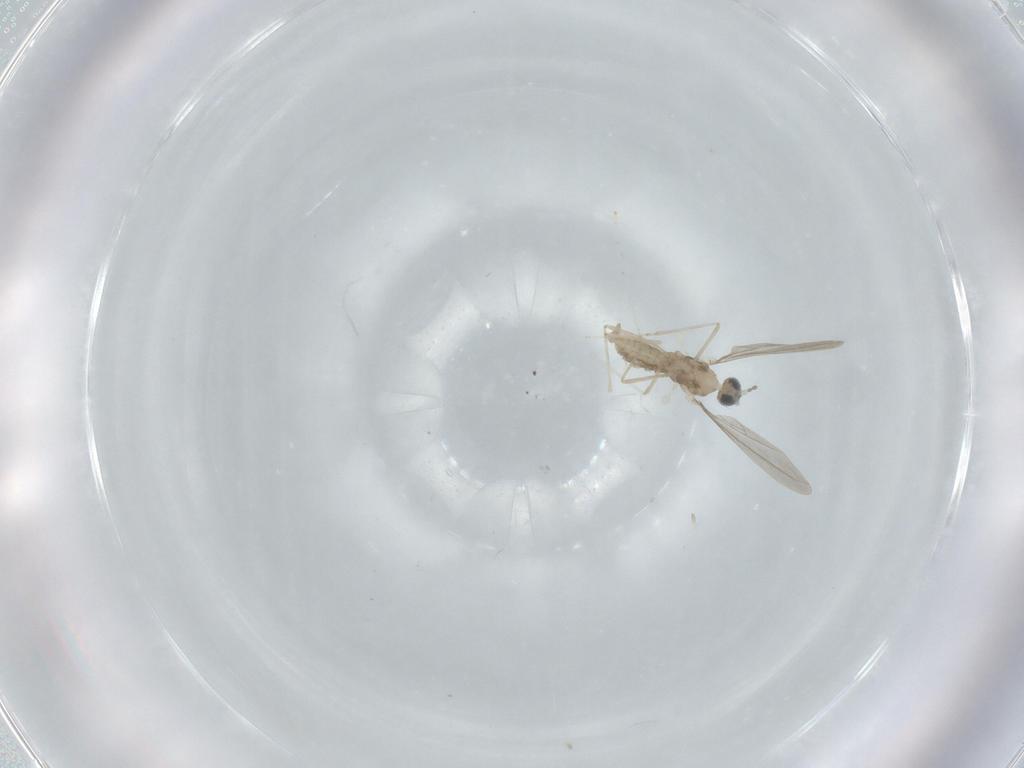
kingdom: Animalia
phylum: Arthropoda
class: Insecta
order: Diptera
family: Cecidomyiidae
